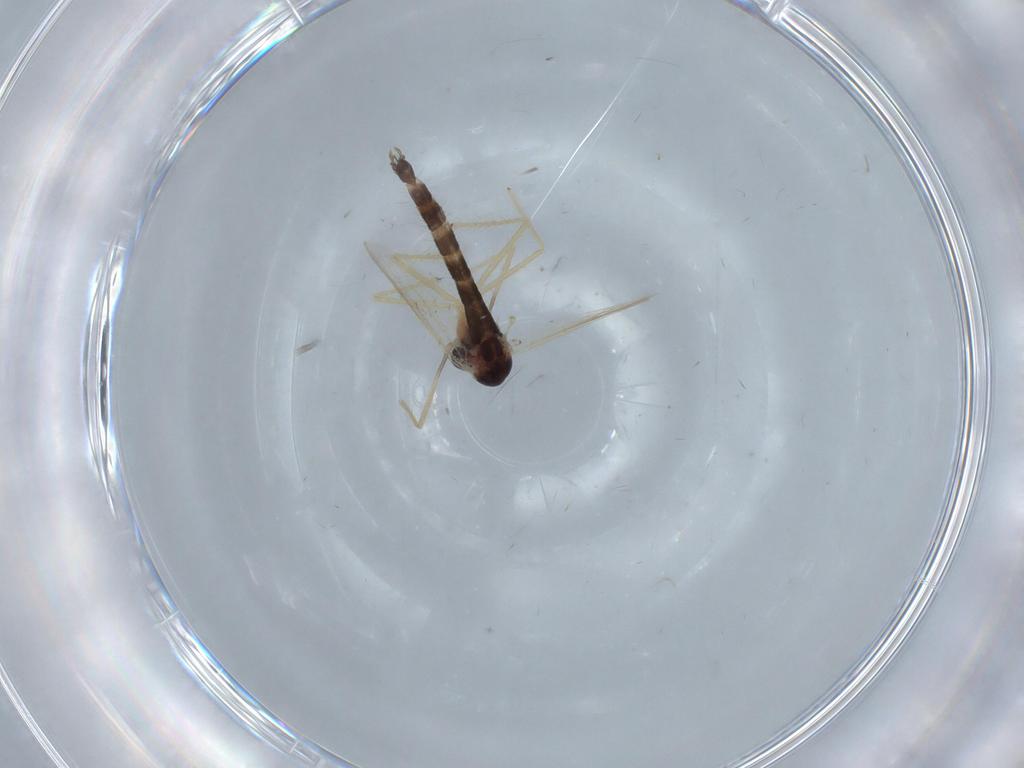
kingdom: Animalia
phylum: Arthropoda
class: Insecta
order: Diptera
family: Chironomidae
